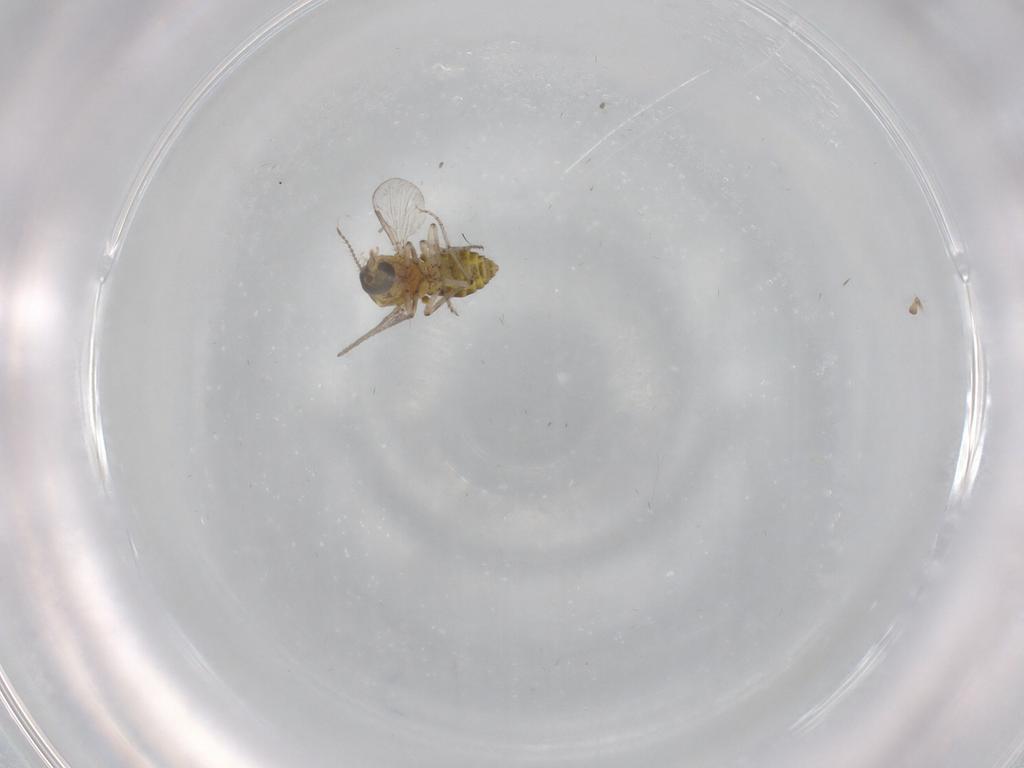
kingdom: Animalia
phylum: Arthropoda
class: Insecta
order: Diptera
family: Ceratopogonidae
